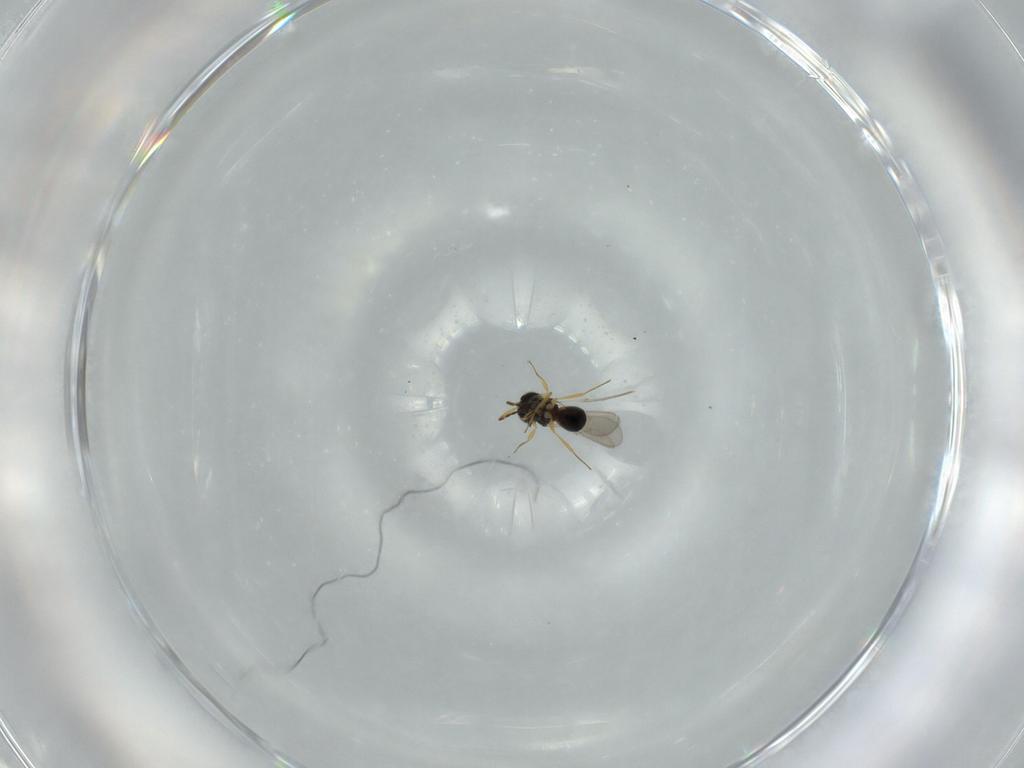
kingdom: Animalia
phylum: Arthropoda
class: Insecta
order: Hymenoptera
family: Scelionidae
